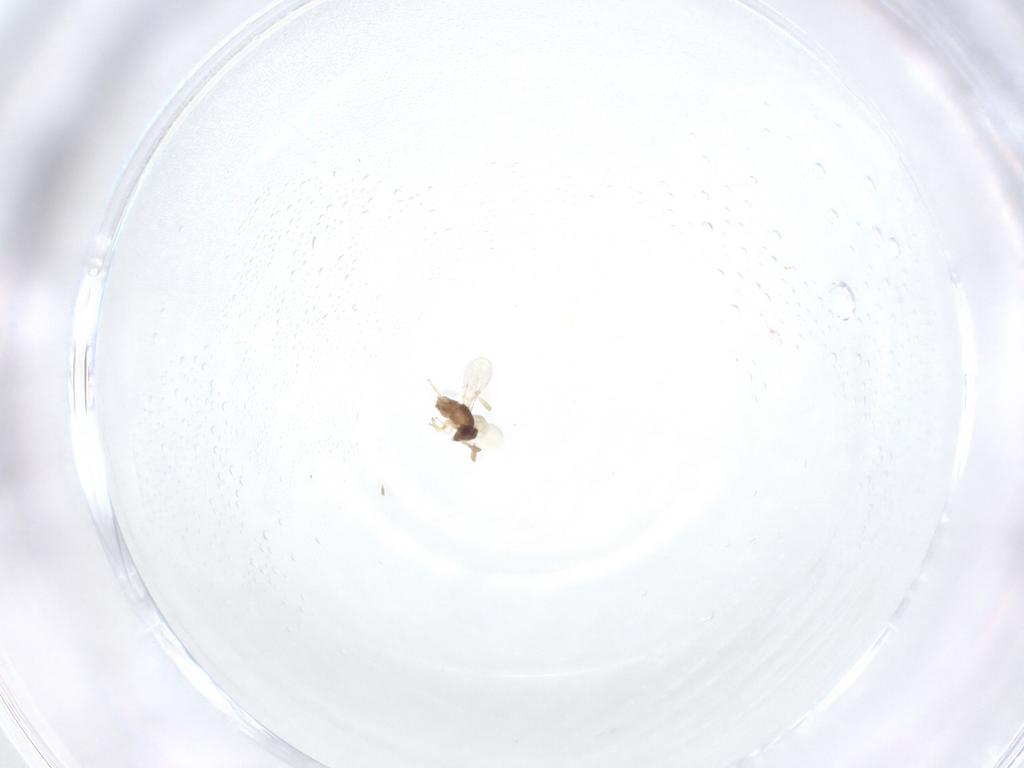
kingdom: Animalia
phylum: Arthropoda
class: Insecta
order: Hymenoptera
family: Encyrtidae
